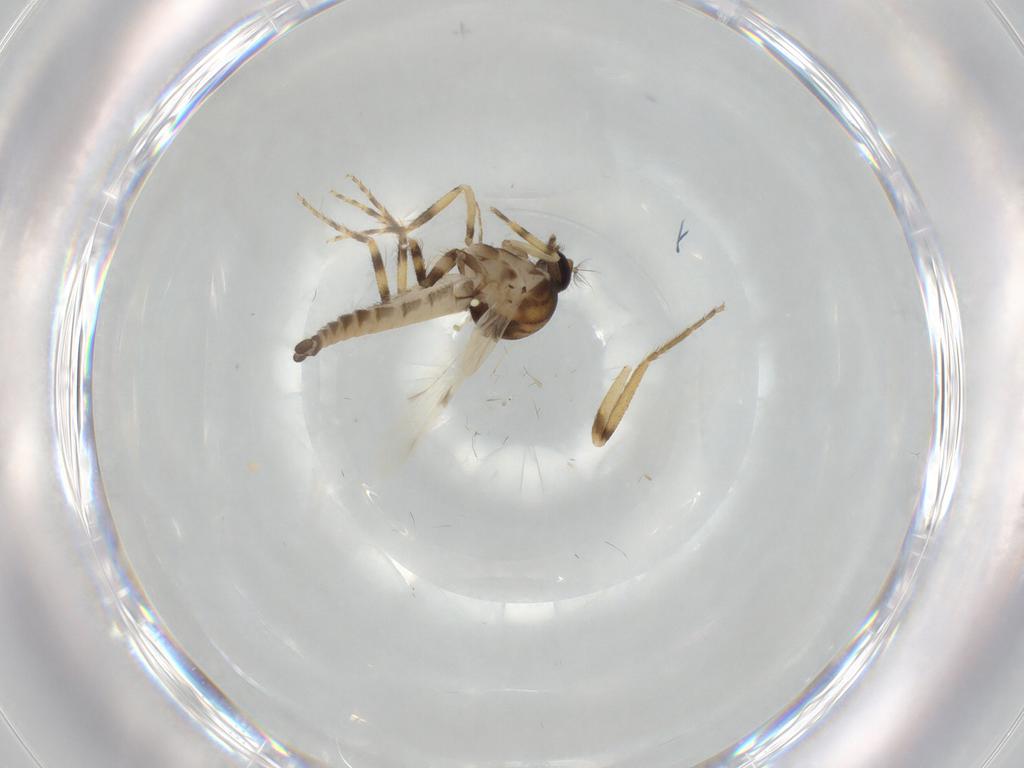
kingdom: Animalia
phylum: Arthropoda
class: Insecta
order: Diptera
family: Ceratopogonidae
